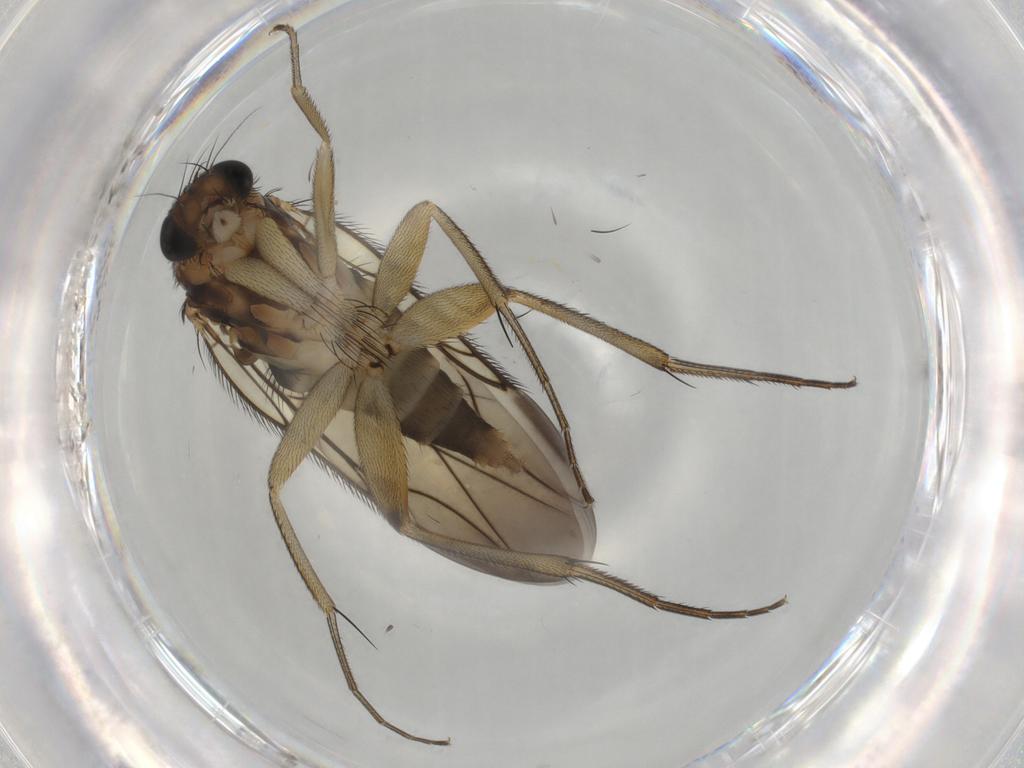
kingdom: Animalia
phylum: Arthropoda
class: Insecta
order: Diptera
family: Phoridae
